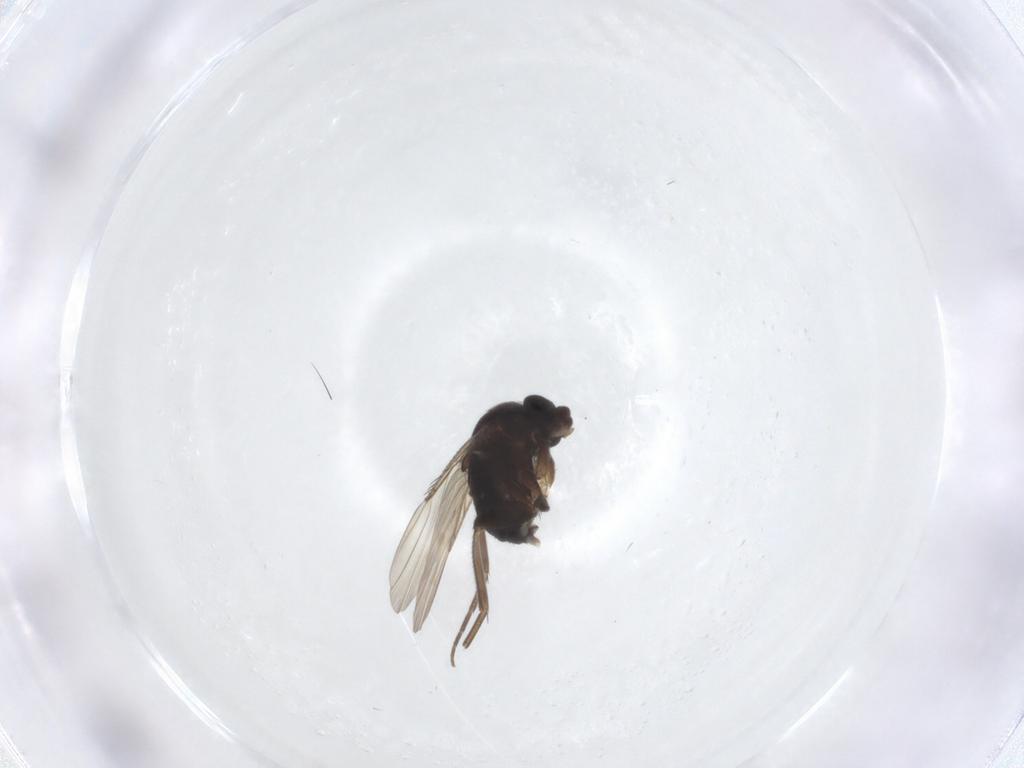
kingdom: Animalia
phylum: Arthropoda
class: Insecta
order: Diptera
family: Phoridae
